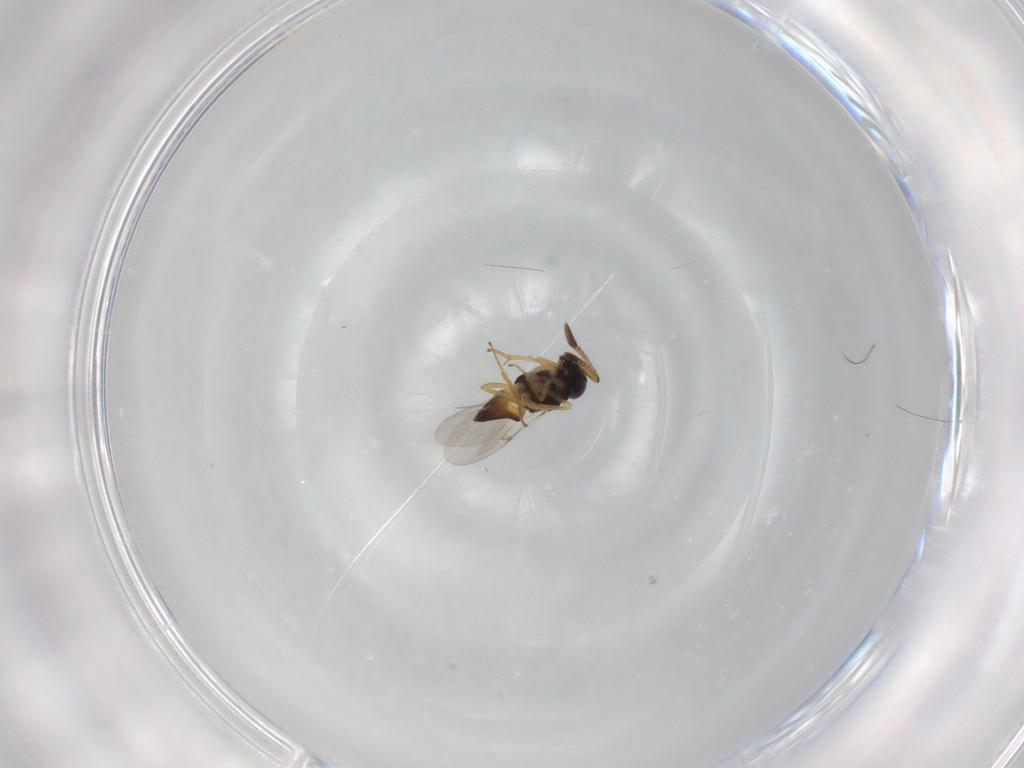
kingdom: Animalia
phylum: Arthropoda
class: Insecta
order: Hymenoptera
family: Encyrtidae
